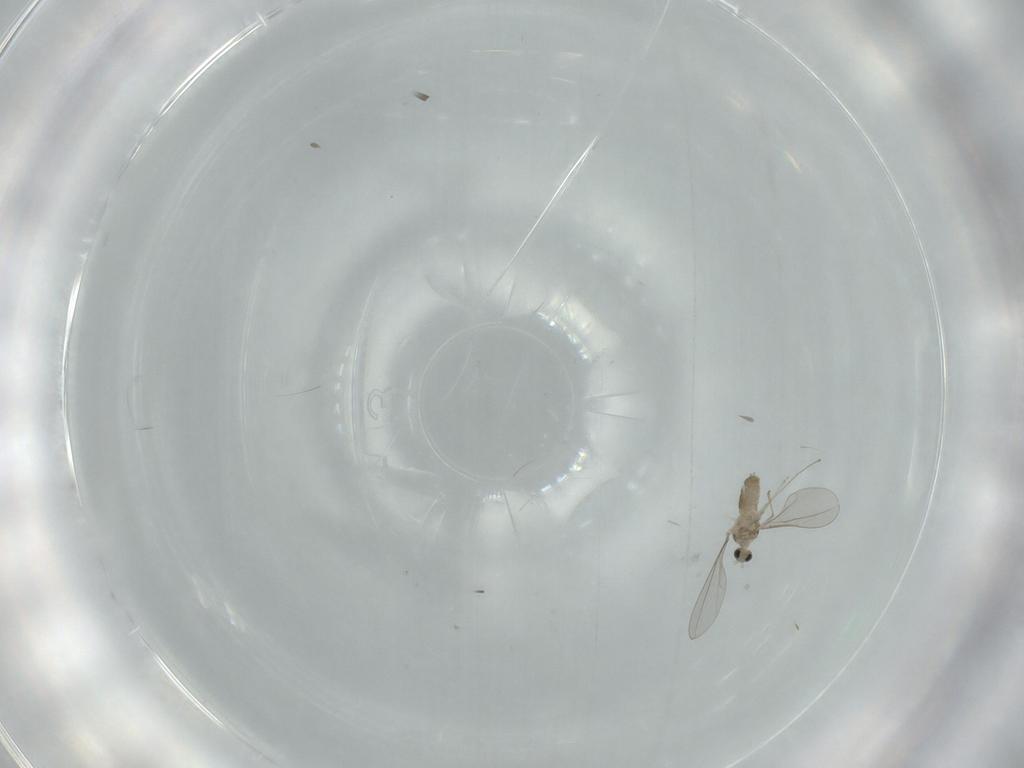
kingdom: Animalia
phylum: Arthropoda
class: Insecta
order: Diptera
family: Cecidomyiidae
